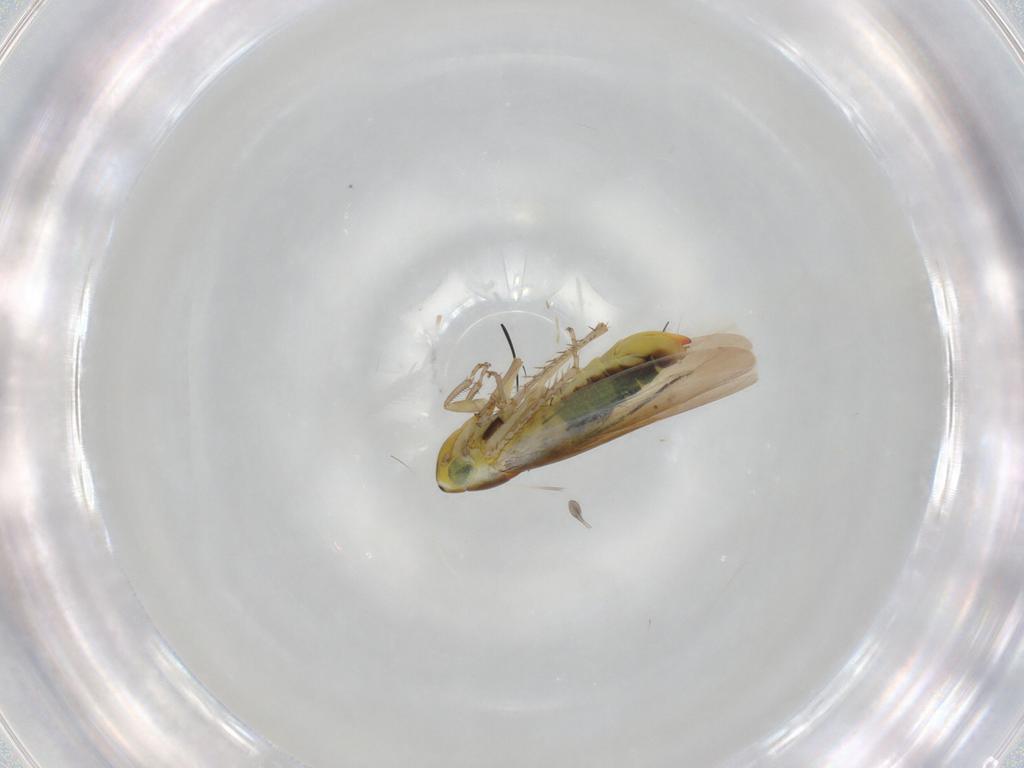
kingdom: Animalia
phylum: Arthropoda
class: Insecta
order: Hemiptera
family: Cicadellidae
